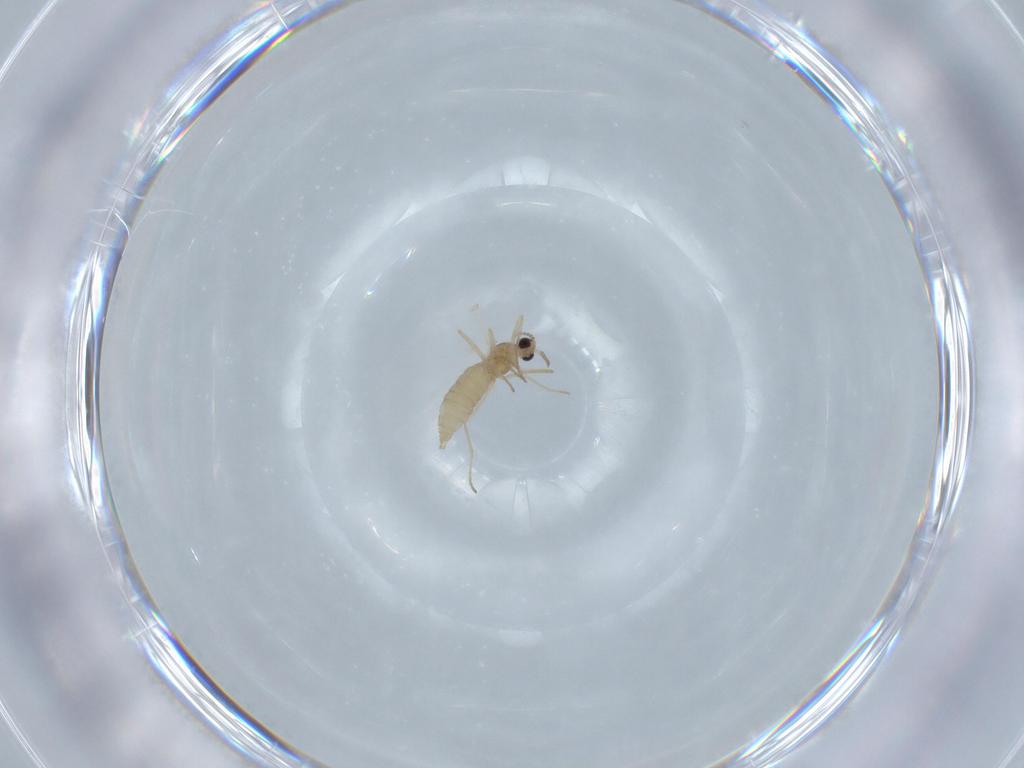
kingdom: Animalia
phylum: Arthropoda
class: Insecta
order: Diptera
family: Cecidomyiidae
